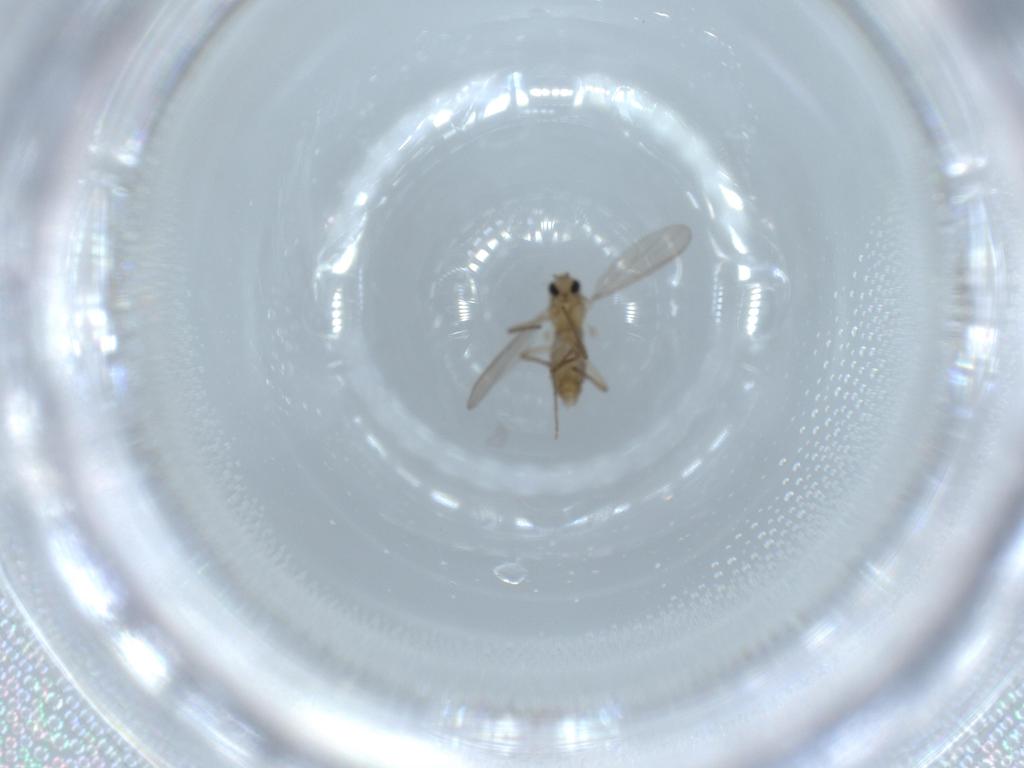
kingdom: Animalia
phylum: Arthropoda
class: Insecta
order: Diptera
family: Chironomidae
